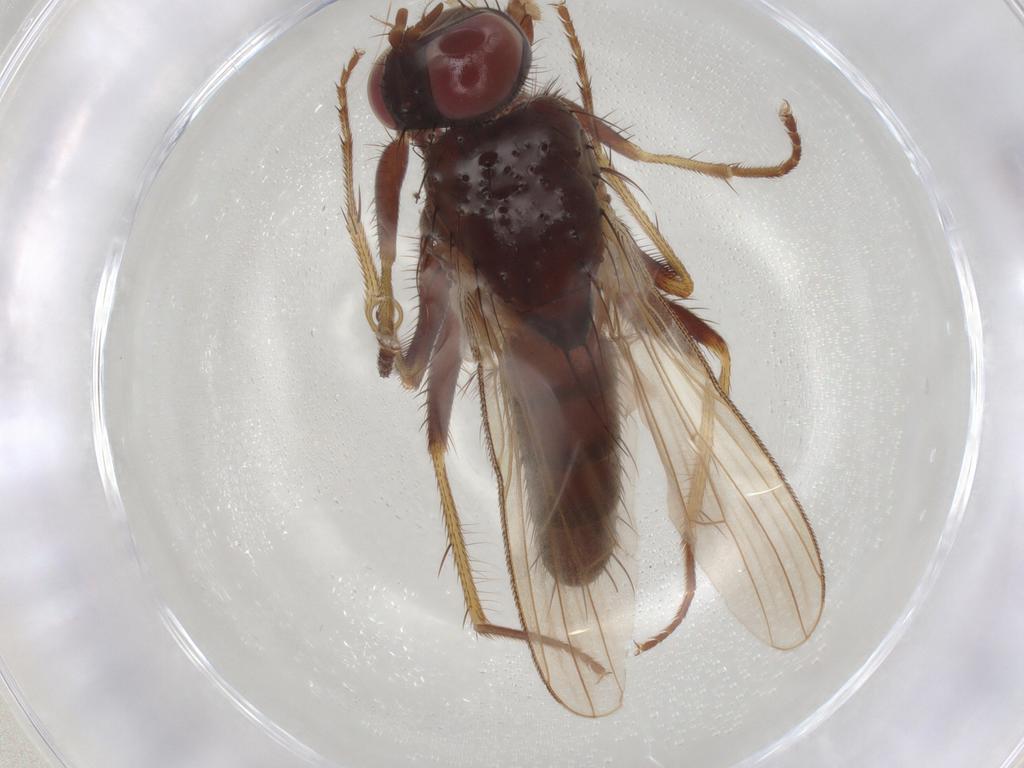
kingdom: Animalia
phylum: Arthropoda
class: Insecta
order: Diptera
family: Muscidae
